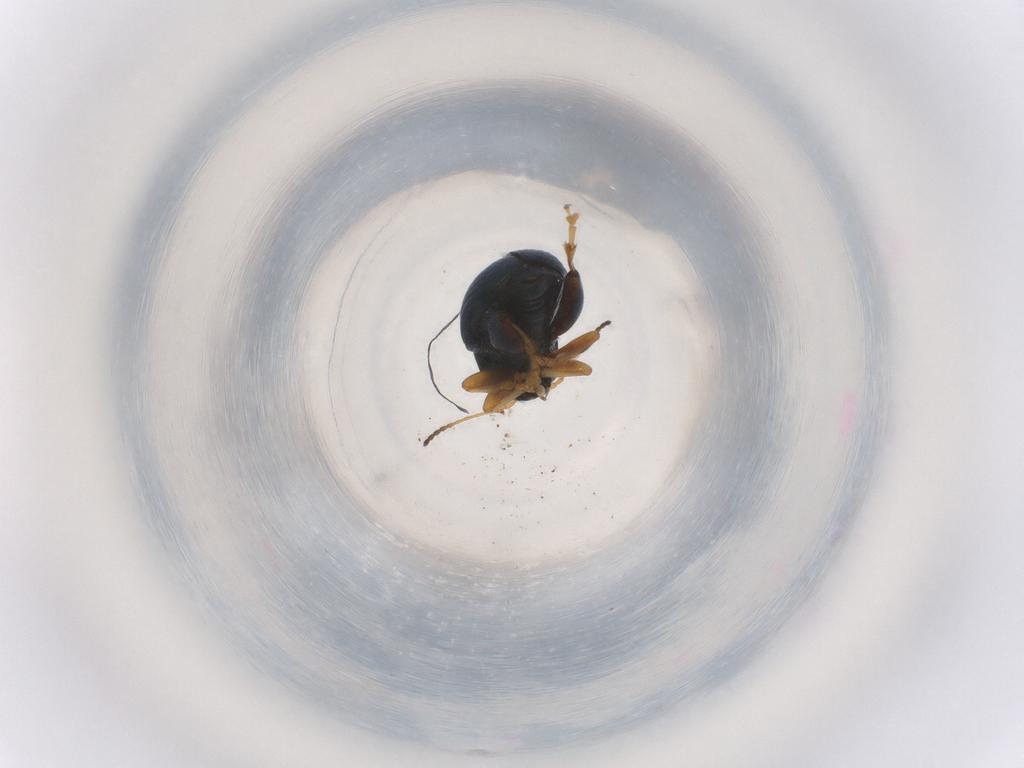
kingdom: Animalia
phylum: Arthropoda
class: Insecta
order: Coleoptera
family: Chrysomelidae
